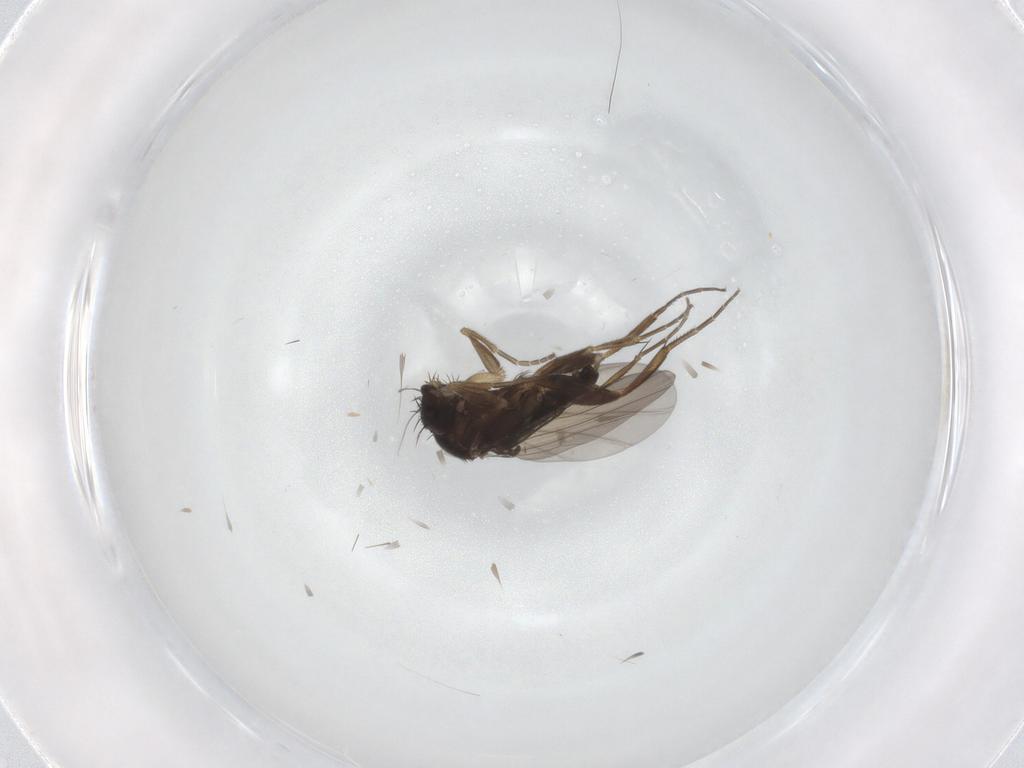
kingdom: Animalia
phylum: Arthropoda
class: Insecta
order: Diptera
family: Phoridae
